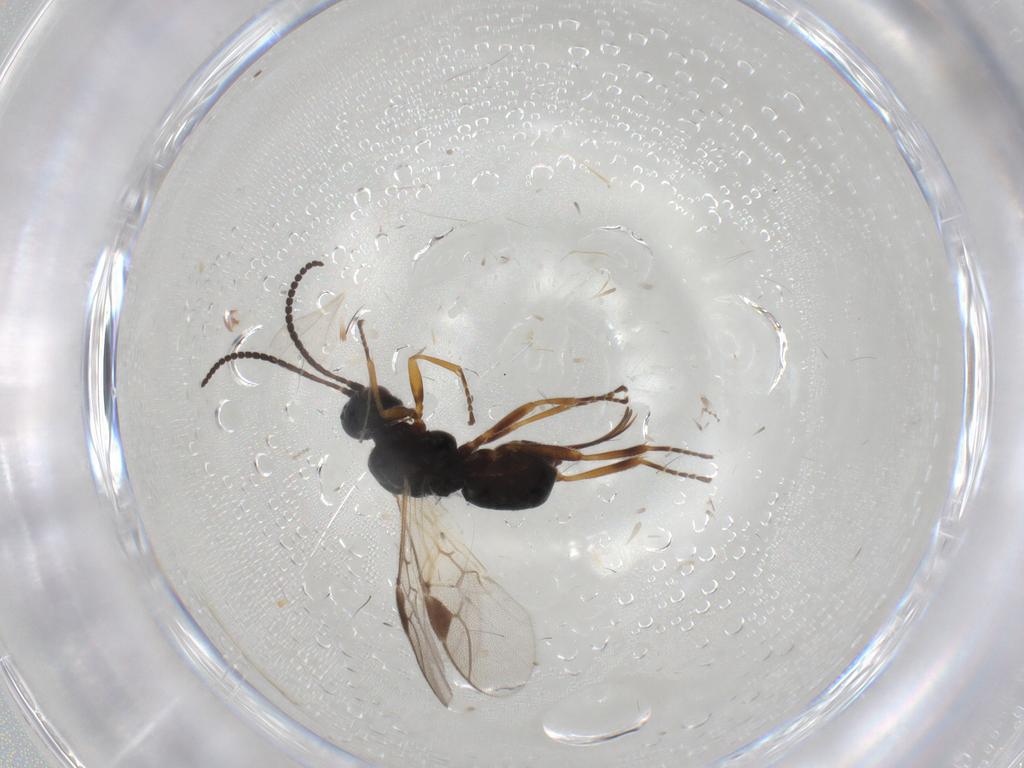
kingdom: Animalia
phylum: Arthropoda
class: Insecta
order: Hymenoptera
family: Braconidae
